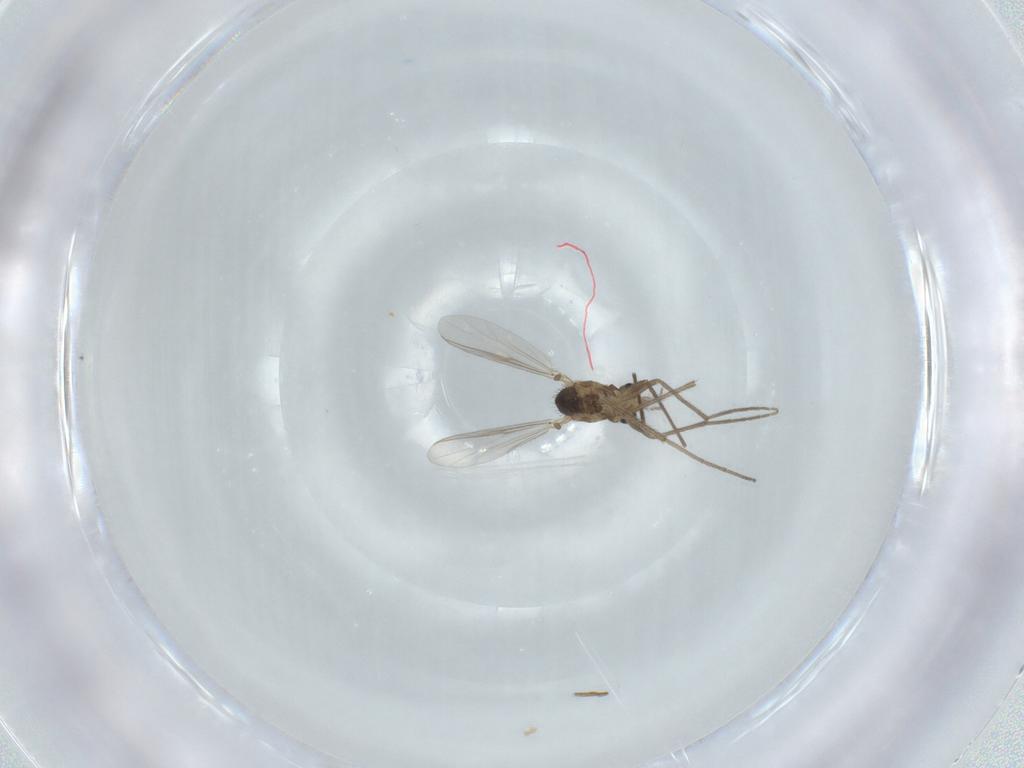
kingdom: Animalia
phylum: Arthropoda
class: Insecta
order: Diptera
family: Chironomidae
